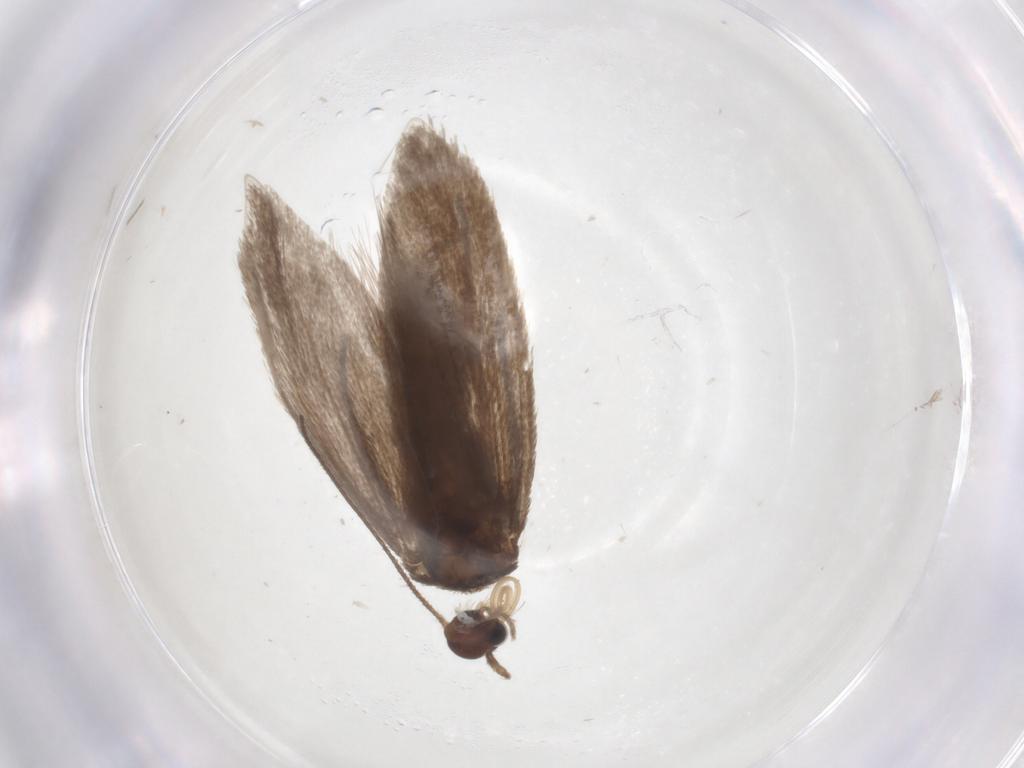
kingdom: Animalia
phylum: Arthropoda
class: Insecta
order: Lepidoptera
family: Limacodidae
